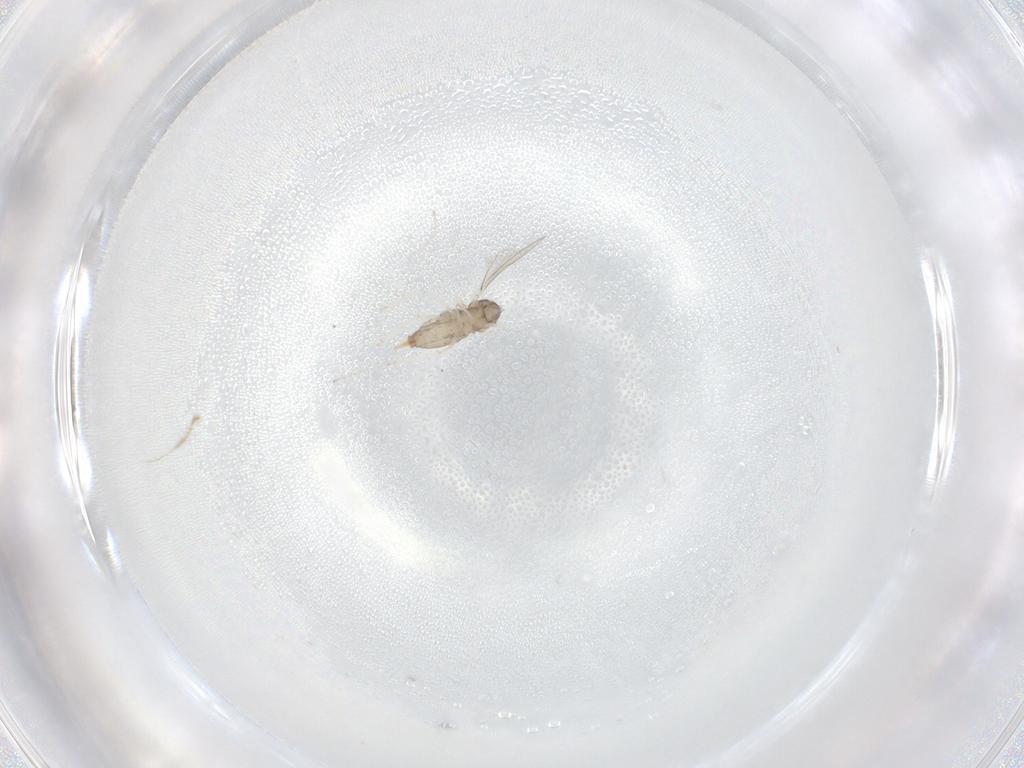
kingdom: Animalia
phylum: Arthropoda
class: Insecta
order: Diptera
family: Cecidomyiidae
